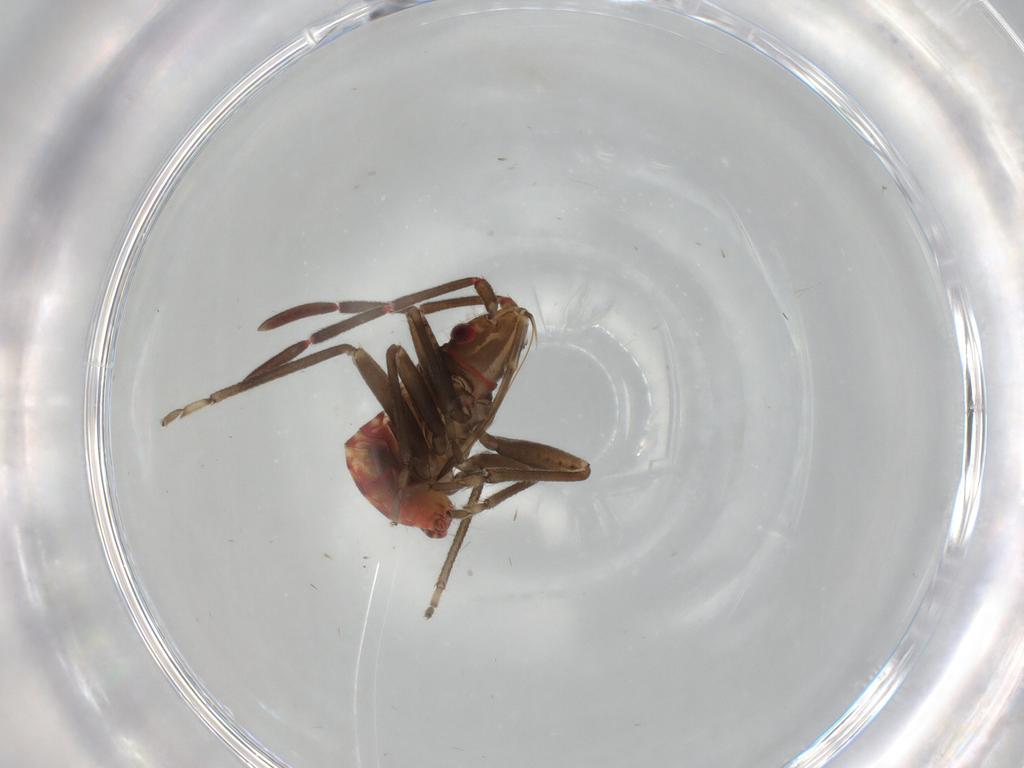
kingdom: Animalia
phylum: Arthropoda
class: Insecta
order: Hemiptera
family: Rhyparochromidae
